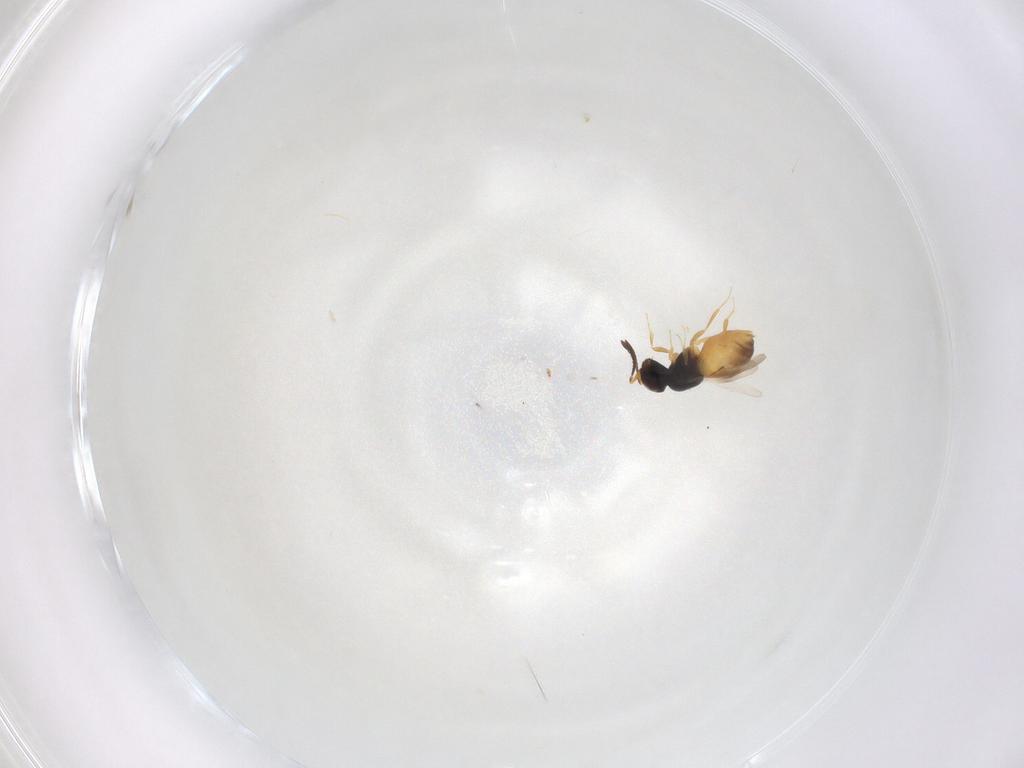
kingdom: Animalia
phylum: Arthropoda
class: Insecta
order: Hymenoptera
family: Braconidae
